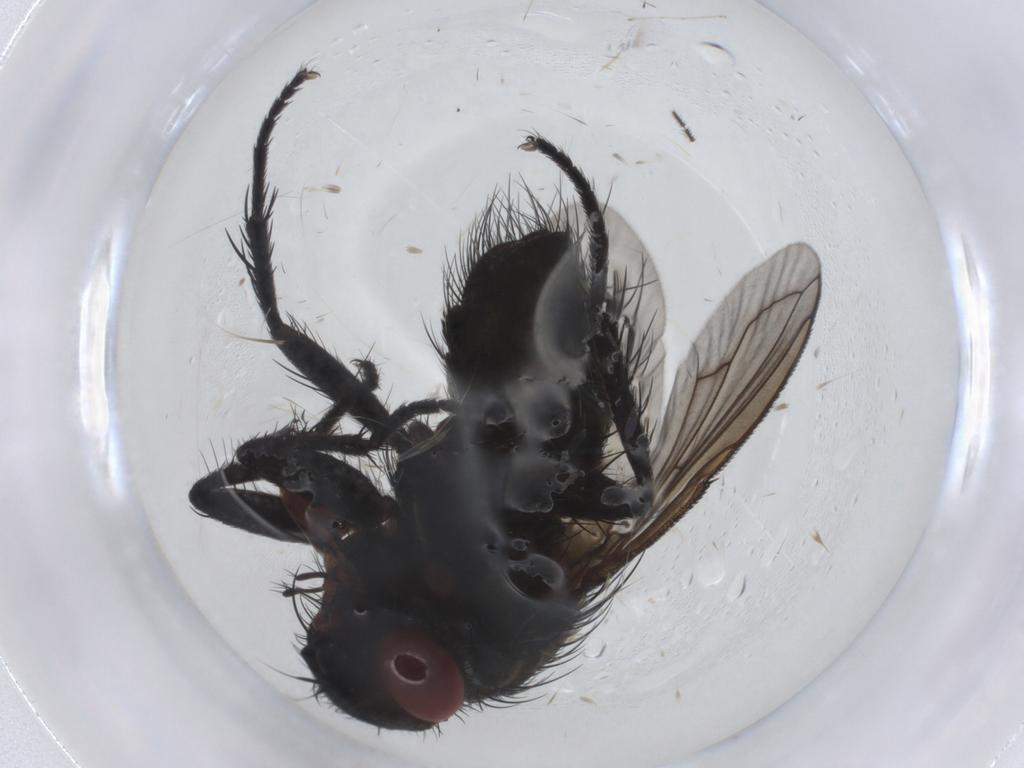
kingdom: Animalia
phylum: Arthropoda
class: Insecta
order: Diptera
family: Tachinidae
